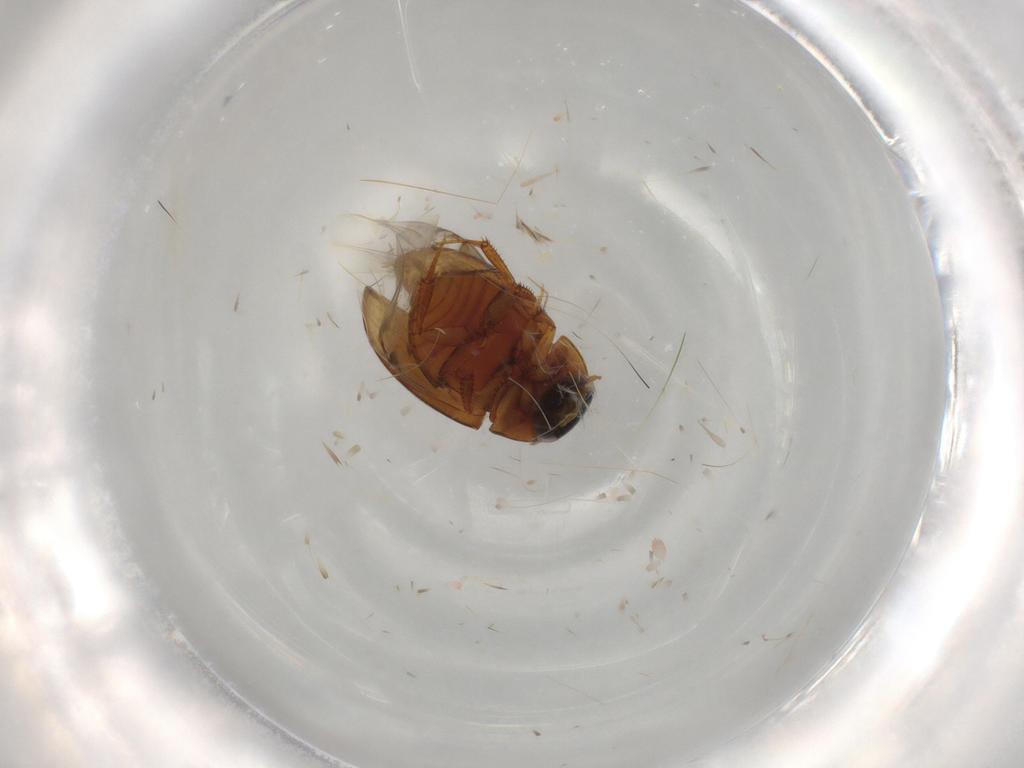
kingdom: Animalia
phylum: Arthropoda
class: Insecta
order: Coleoptera
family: Hydrophilidae
